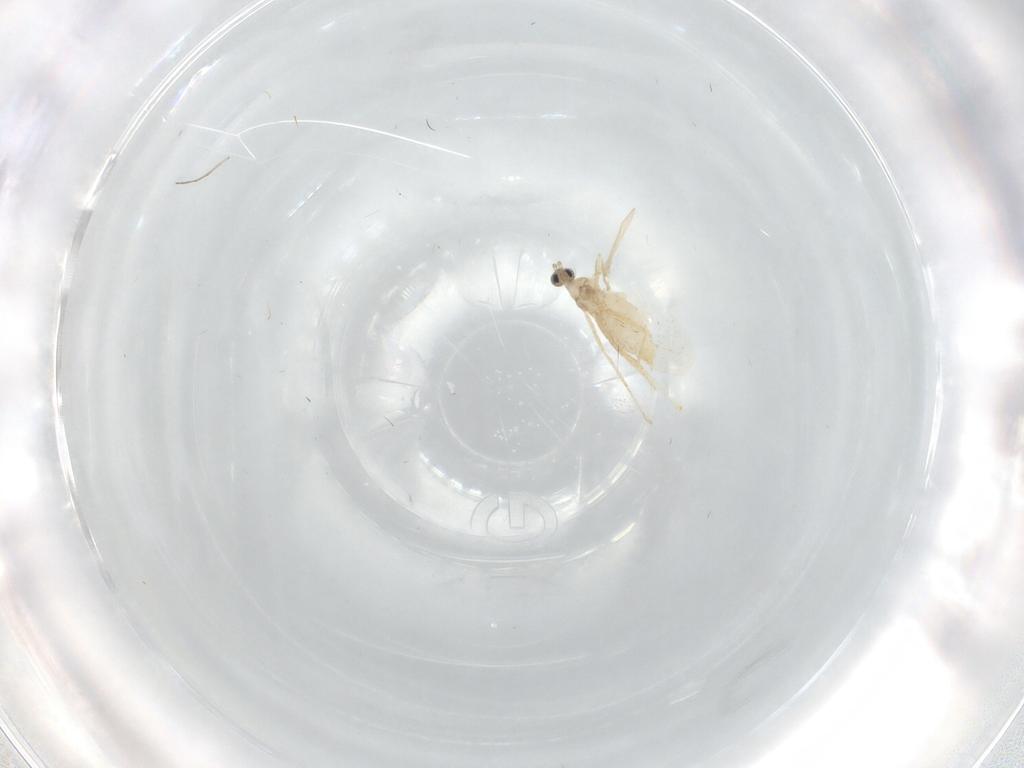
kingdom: Animalia
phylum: Arthropoda
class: Insecta
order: Diptera
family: Cecidomyiidae
